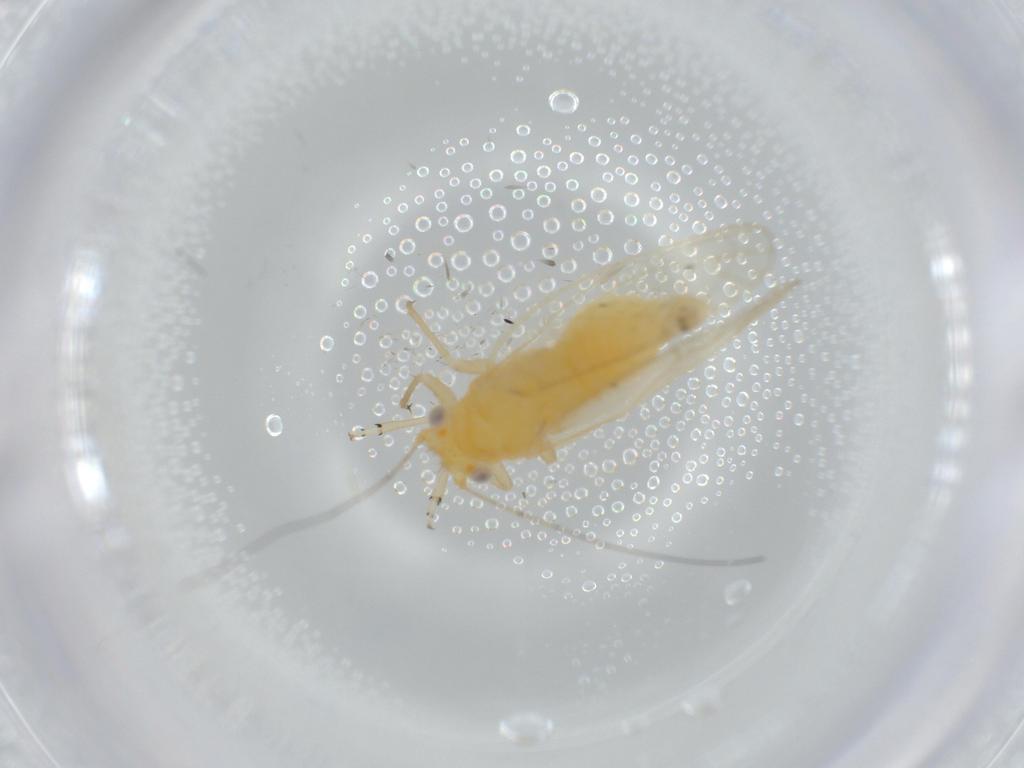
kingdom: Animalia
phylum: Arthropoda
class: Insecta
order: Hemiptera
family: Psyllidae
